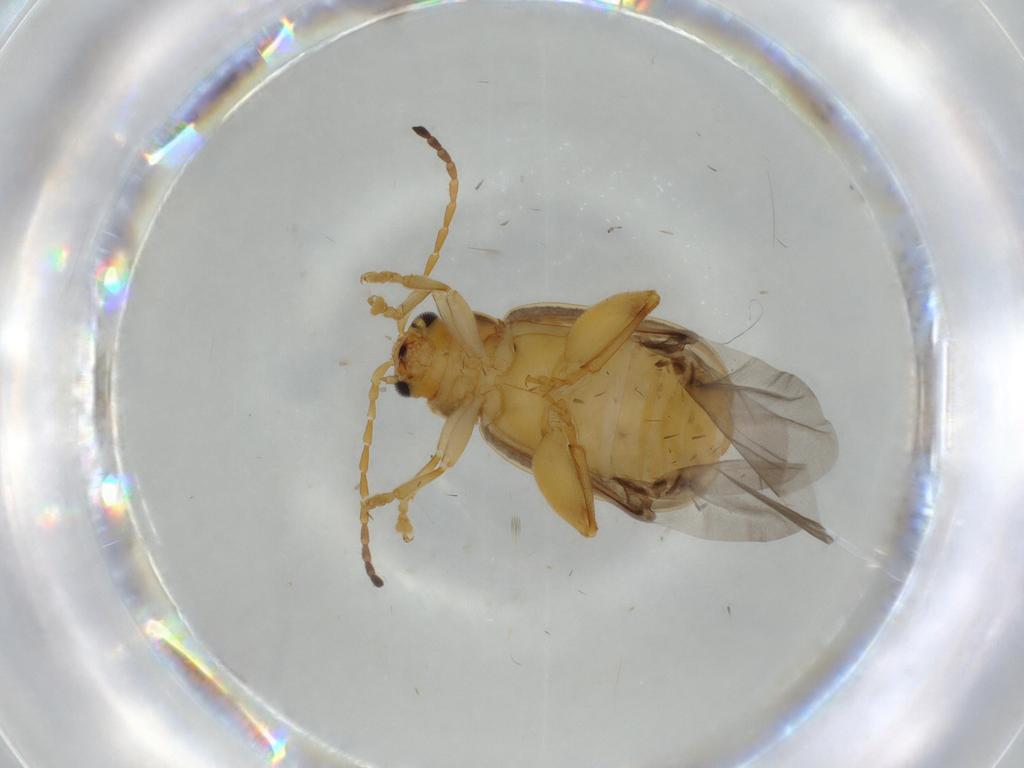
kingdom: Animalia
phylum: Arthropoda
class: Insecta
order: Coleoptera
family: Chrysomelidae
